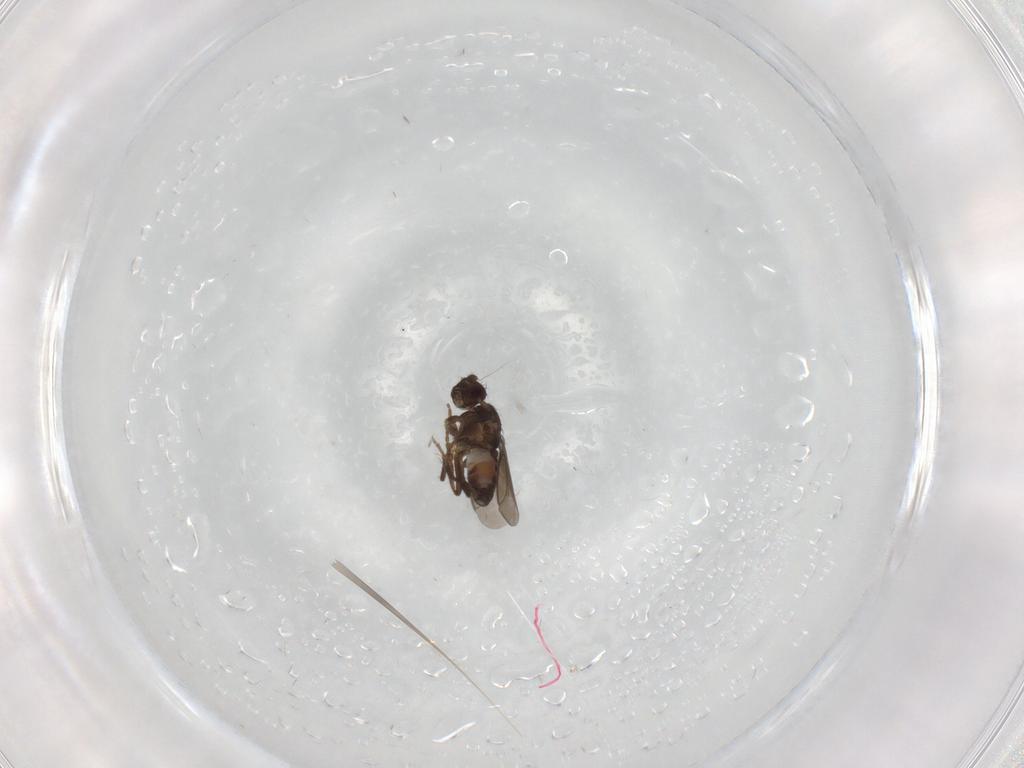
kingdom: Animalia
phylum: Arthropoda
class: Insecta
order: Diptera
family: Sphaeroceridae
